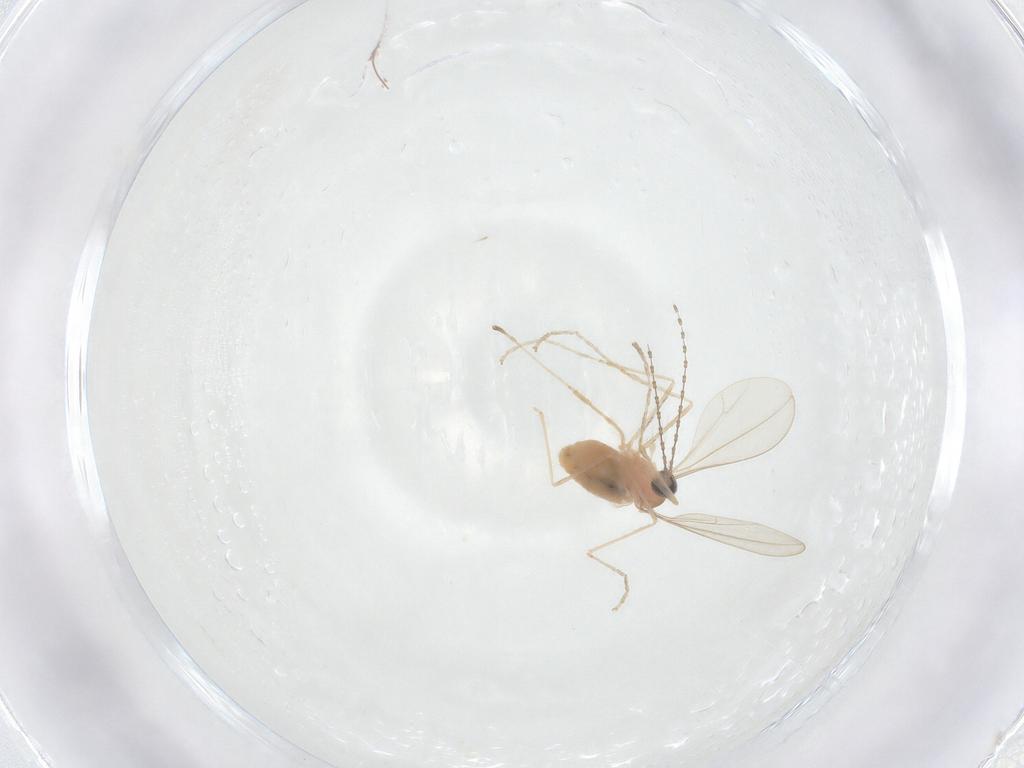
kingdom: Animalia
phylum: Arthropoda
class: Insecta
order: Diptera
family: Cecidomyiidae
